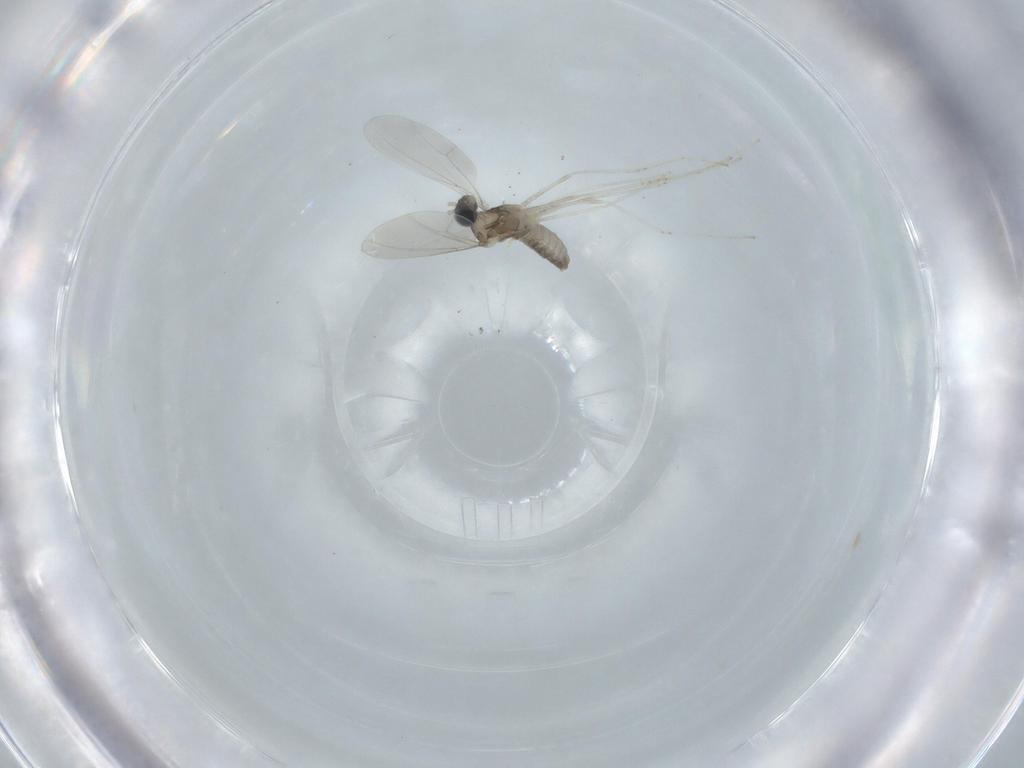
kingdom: Animalia
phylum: Arthropoda
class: Insecta
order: Diptera
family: Cecidomyiidae
